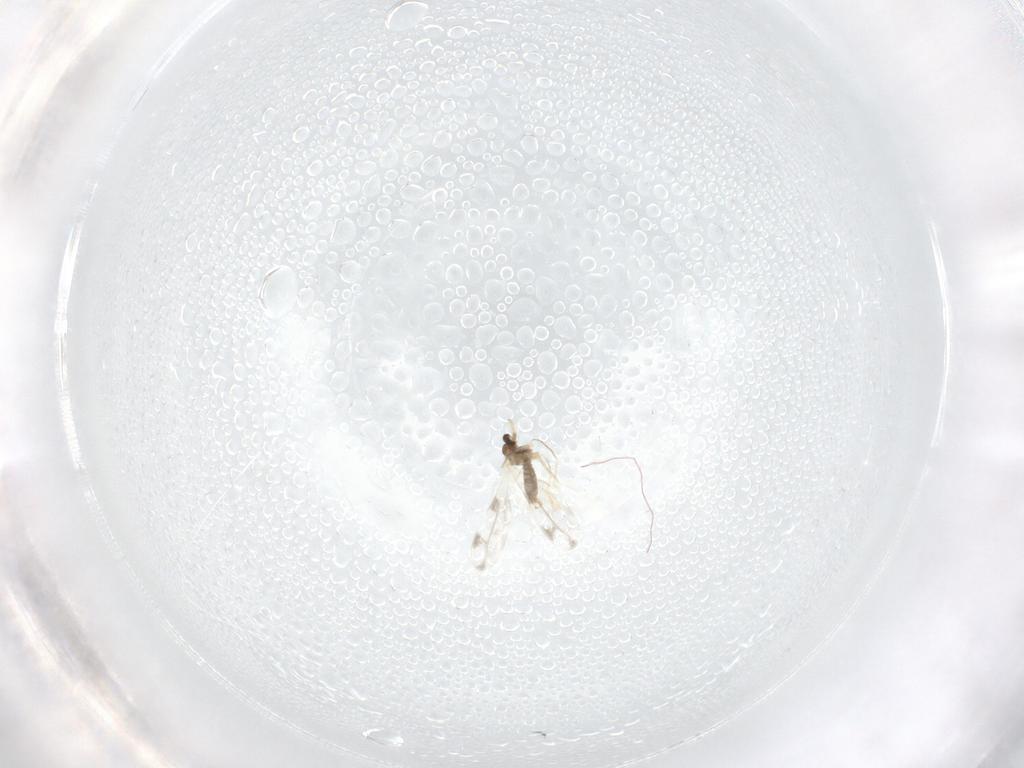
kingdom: Animalia
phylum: Arthropoda
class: Insecta
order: Diptera
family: Cecidomyiidae
